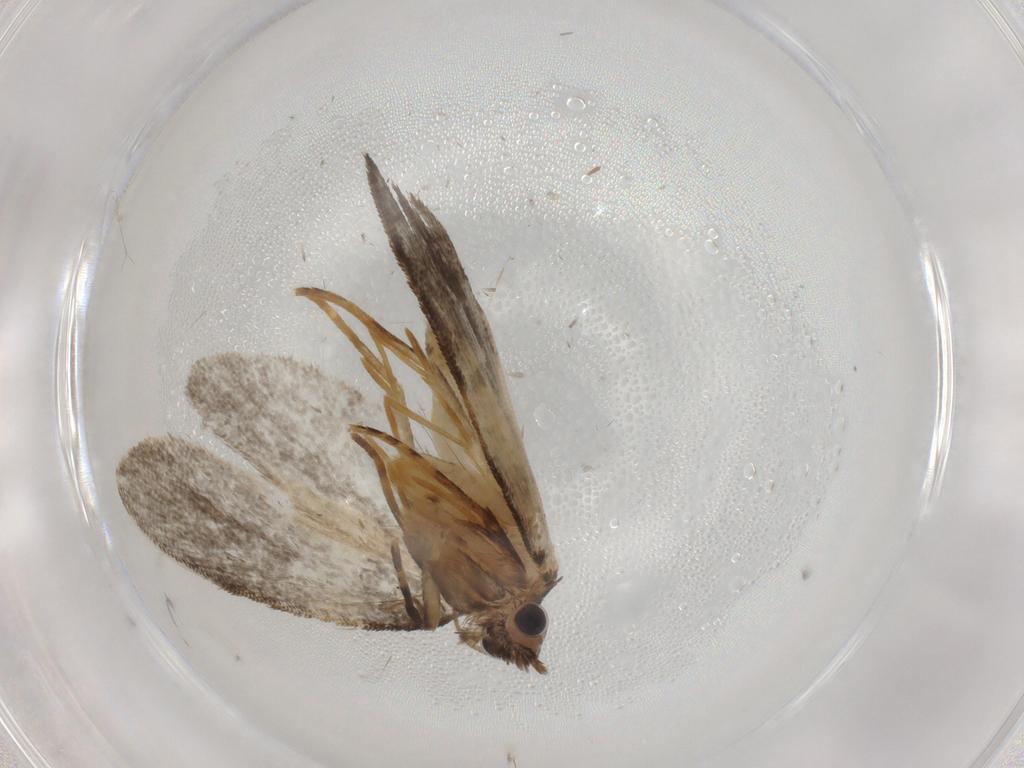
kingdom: Animalia
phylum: Arthropoda
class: Insecta
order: Lepidoptera
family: Psychidae
